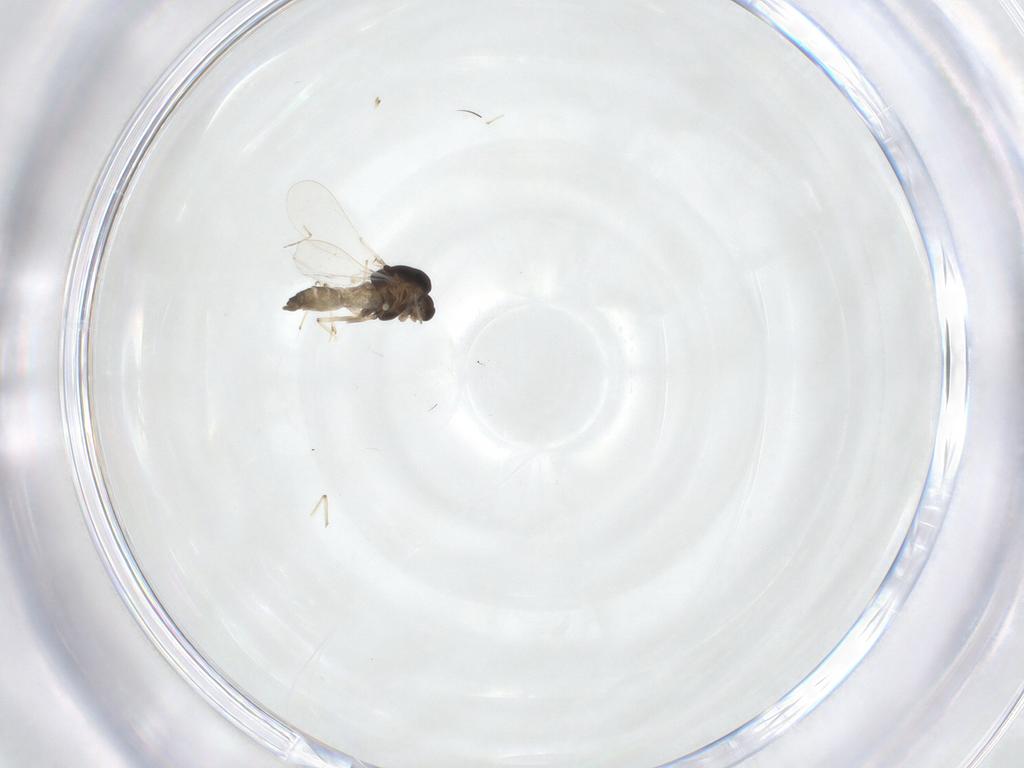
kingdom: Animalia
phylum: Arthropoda
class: Insecta
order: Diptera
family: Chironomidae
